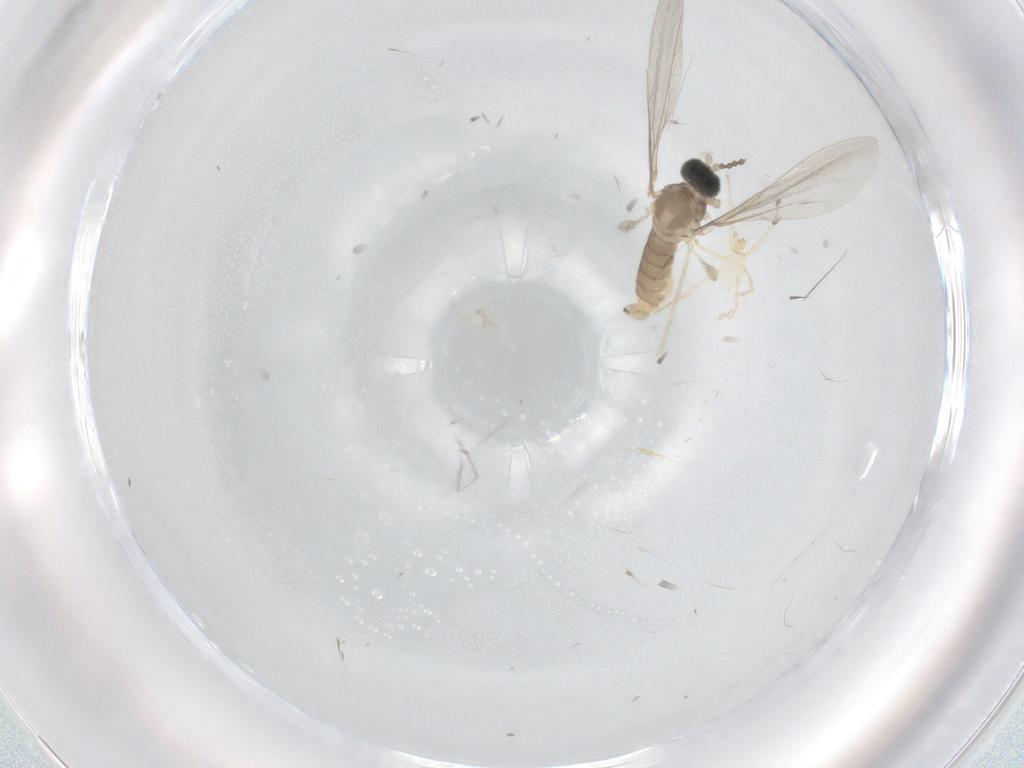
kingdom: Animalia
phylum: Arthropoda
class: Insecta
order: Diptera
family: Cecidomyiidae
